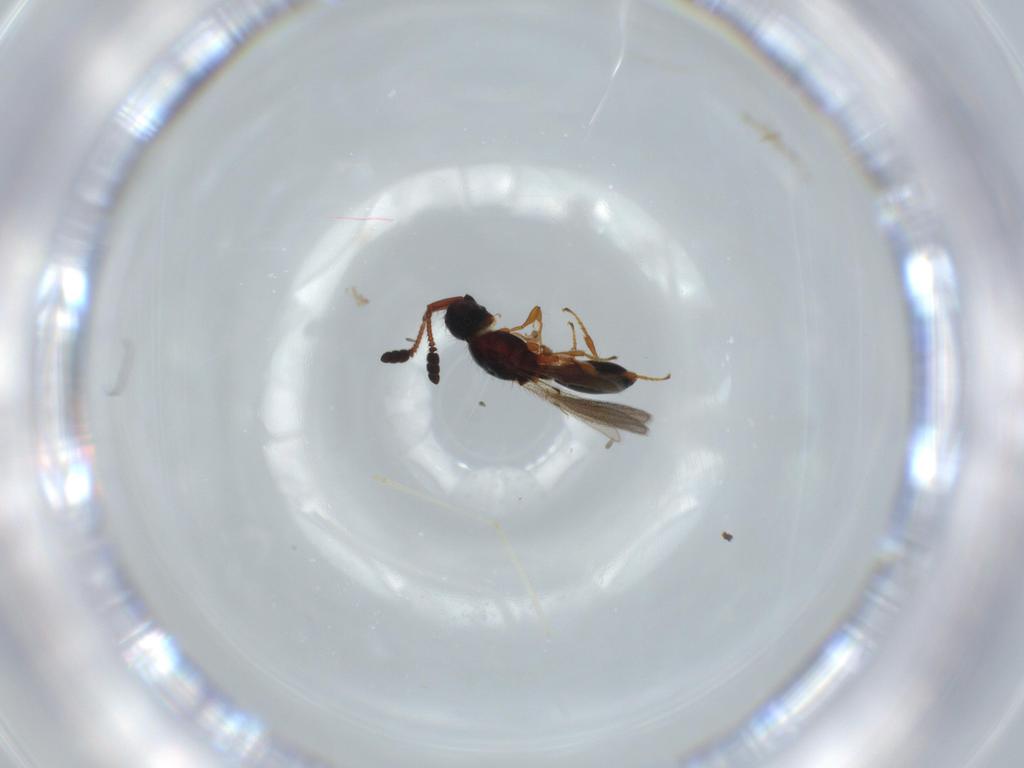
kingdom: Animalia
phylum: Arthropoda
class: Insecta
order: Hymenoptera
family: Diapriidae
